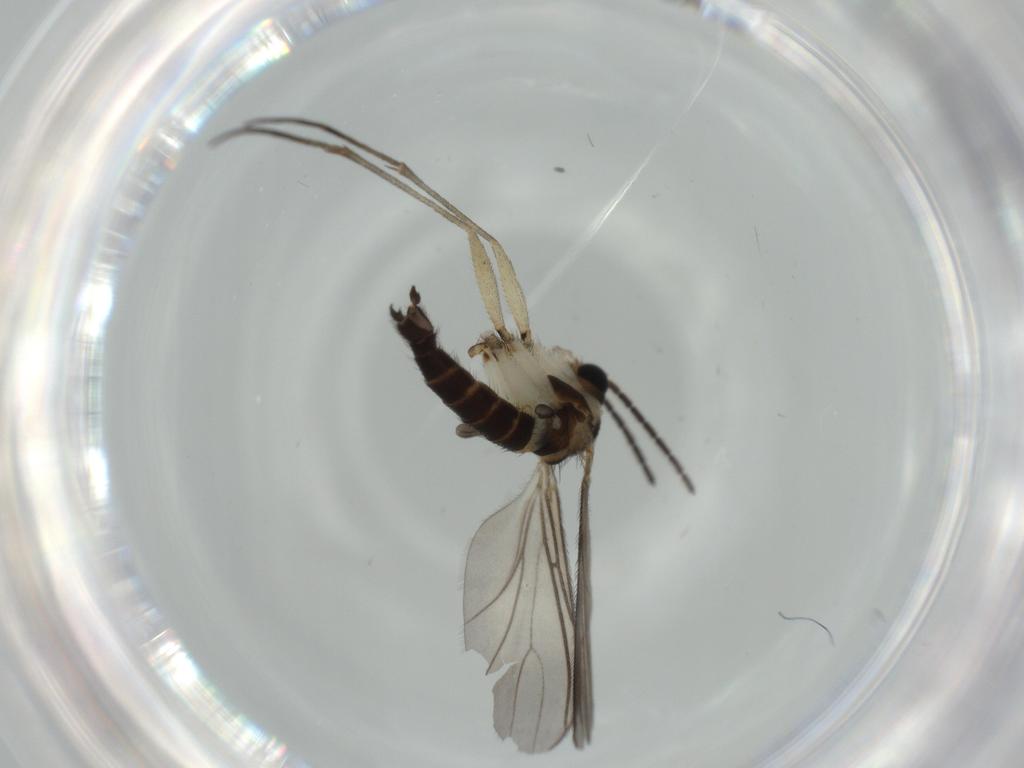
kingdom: Animalia
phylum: Arthropoda
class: Insecta
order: Diptera
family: Sciaridae
